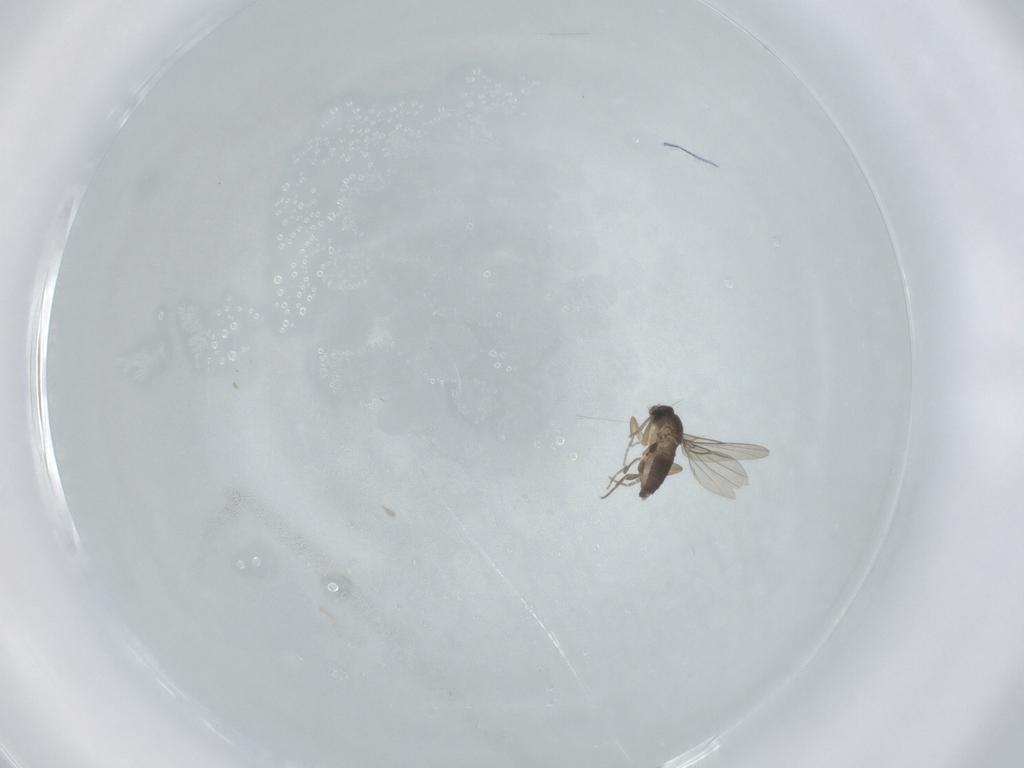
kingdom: Animalia
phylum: Arthropoda
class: Insecta
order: Diptera
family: Phoridae
